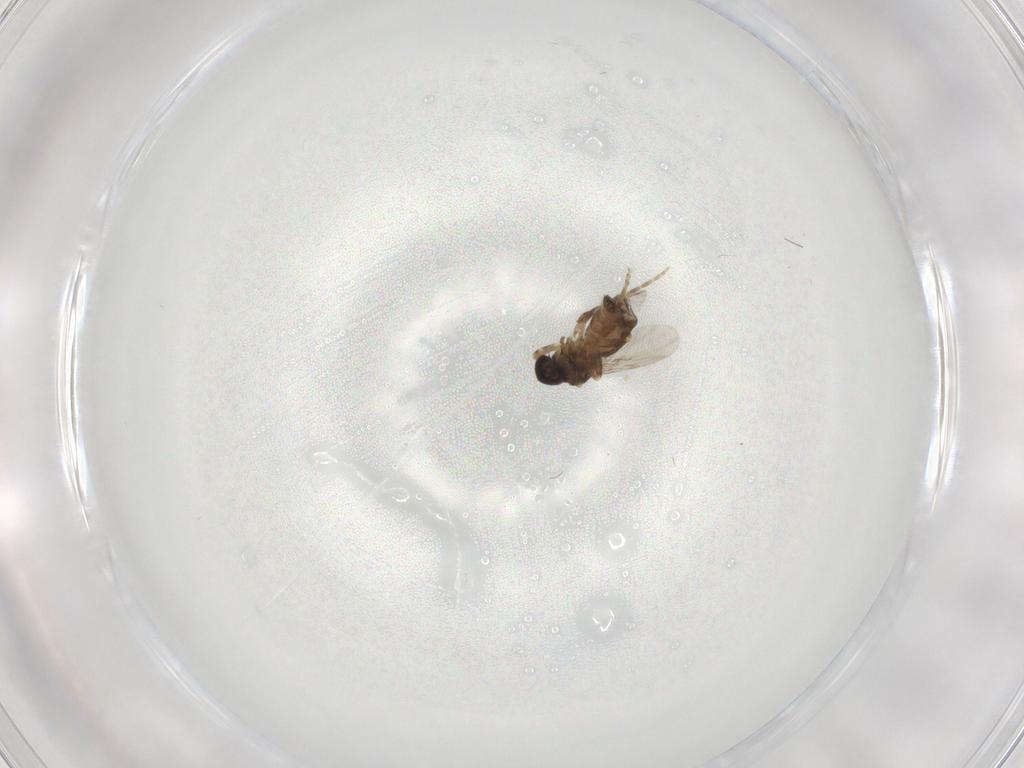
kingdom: Animalia
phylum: Arthropoda
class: Insecta
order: Diptera
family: Ceratopogonidae
